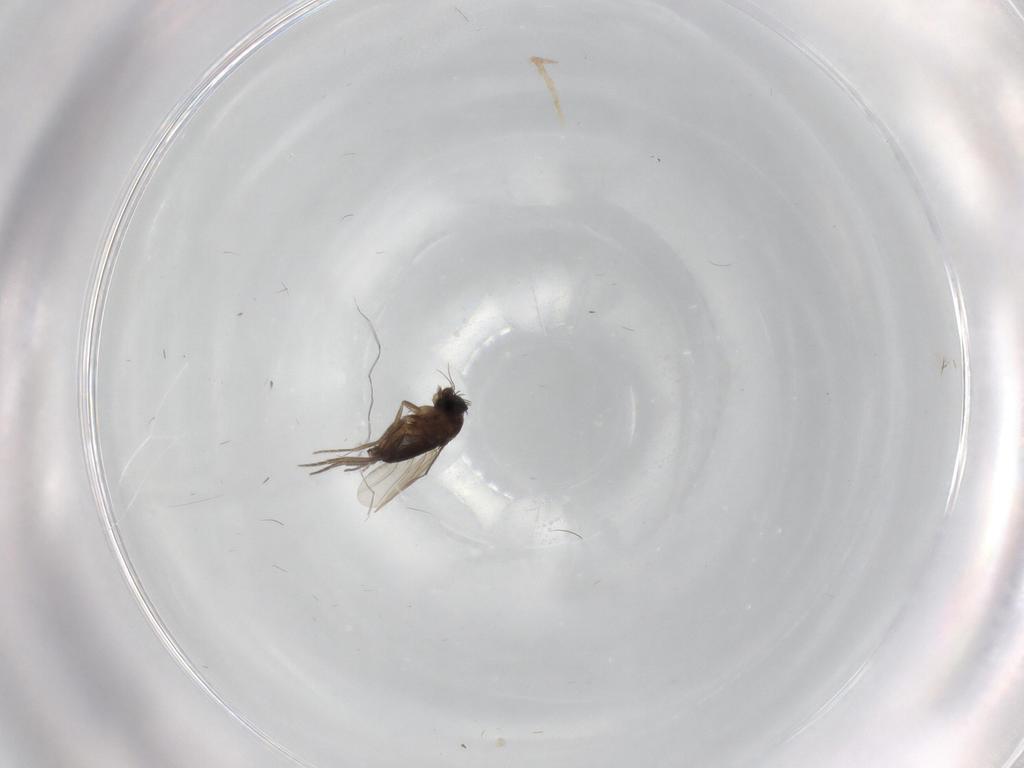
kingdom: Animalia
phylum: Arthropoda
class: Insecta
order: Diptera
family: Phoridae
